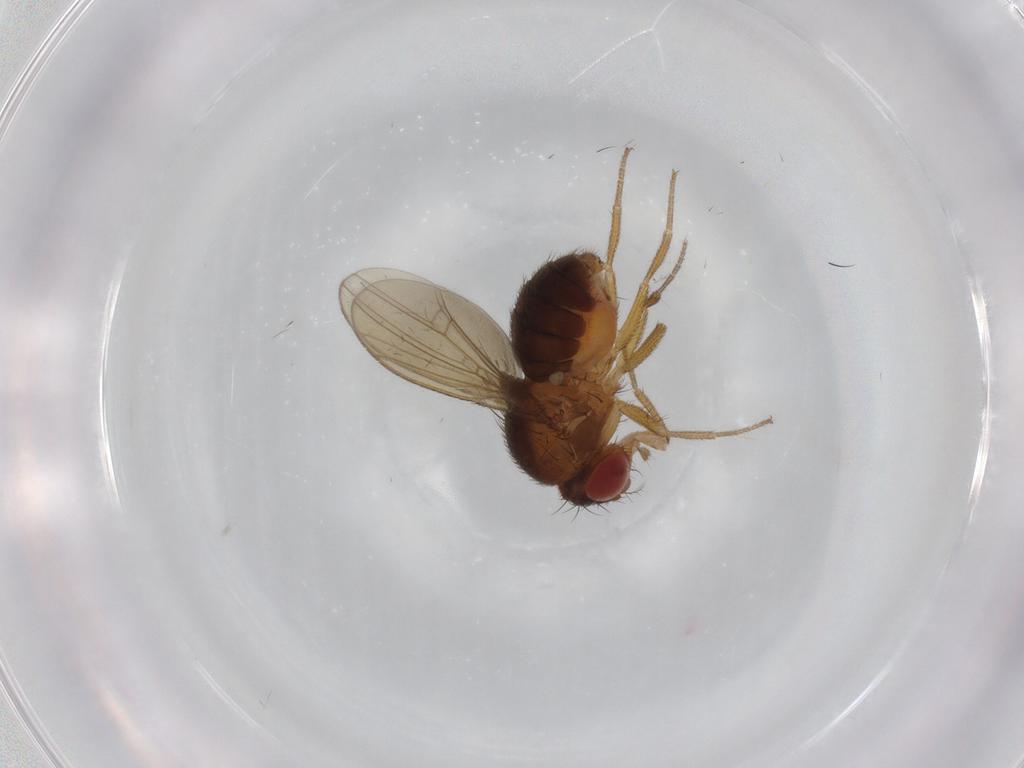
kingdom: Animalia
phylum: Arthropoda
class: Insecta
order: Diptera
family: Drosophilidae
